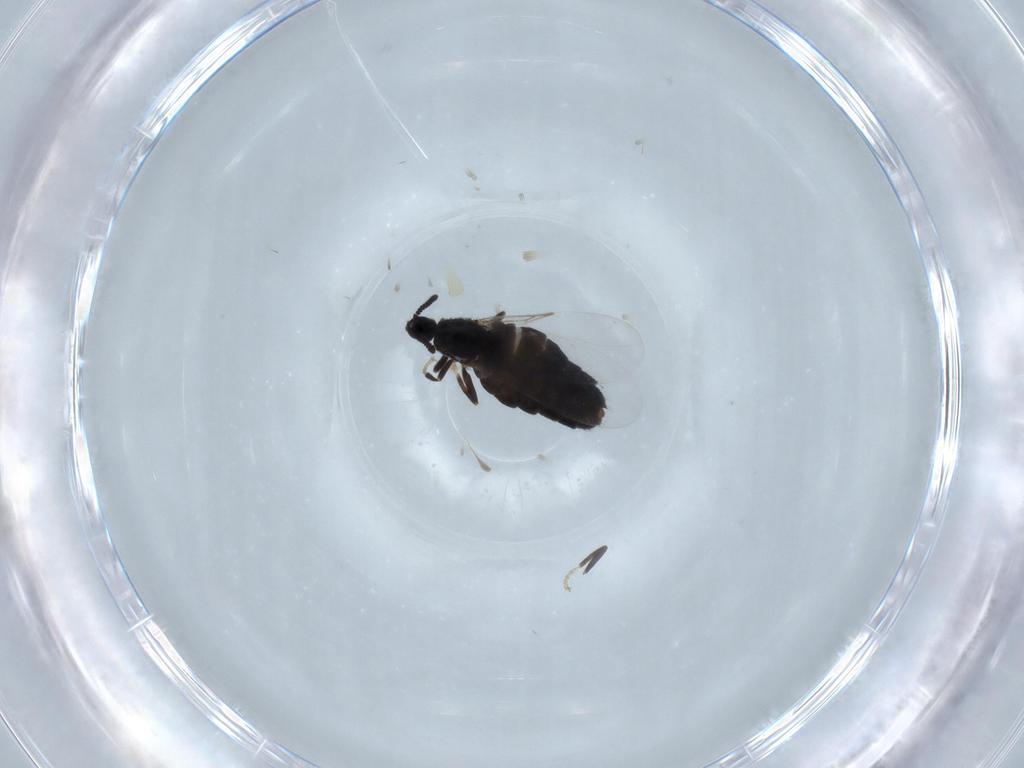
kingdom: Animalia
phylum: Arthropoda
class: Insecta
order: Diptera
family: Scatopsidae
